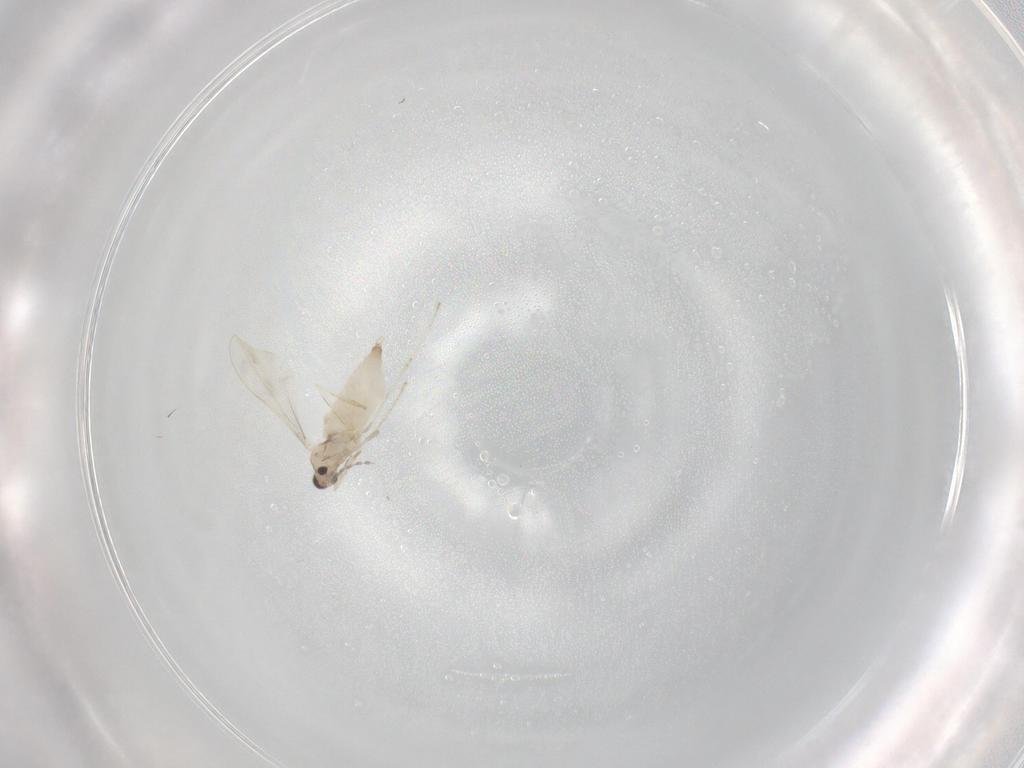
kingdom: Animalia
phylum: Arthropoda
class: Insecta
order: Diptera
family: Cecidomyiidae
